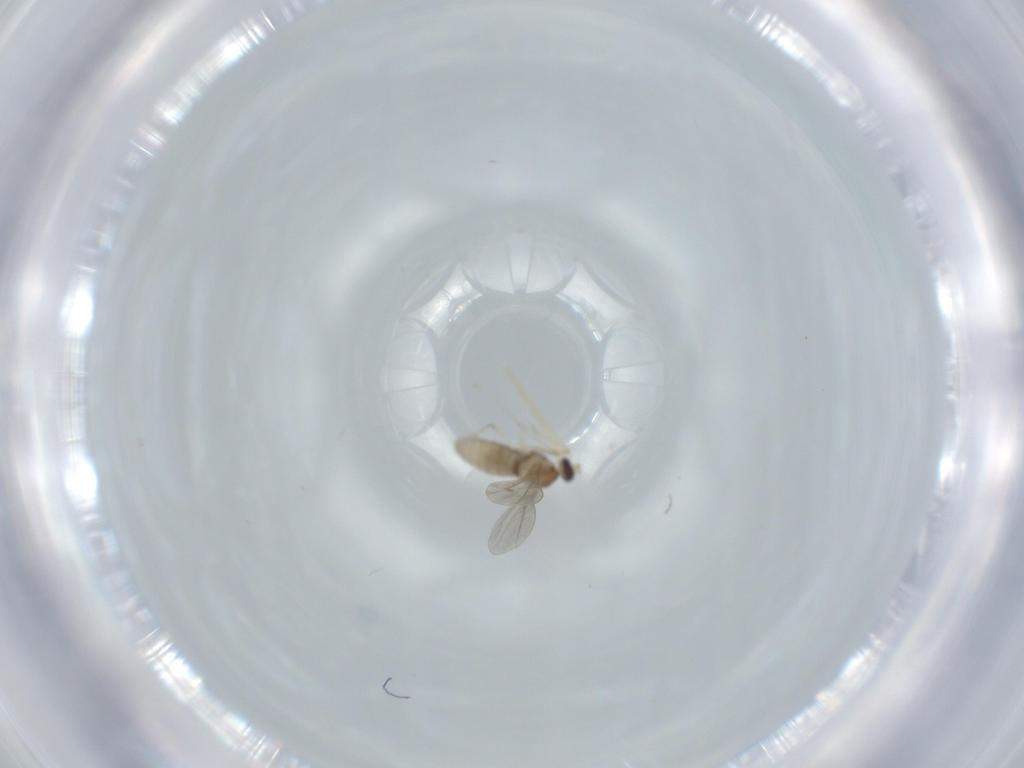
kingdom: Animalia
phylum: Arthropoda
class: Insecta
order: Diptera
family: Cecidomyiidae
